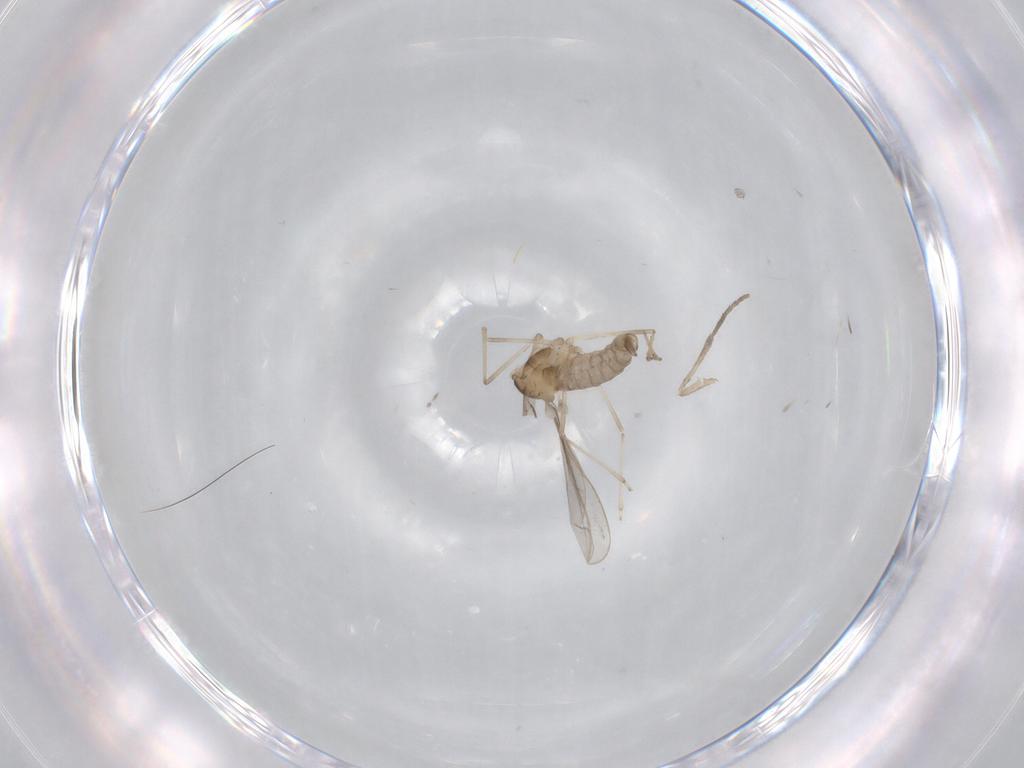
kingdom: Animalia
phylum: Arthropoda
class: Insecta
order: Diptera
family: Cecidomyiidae
